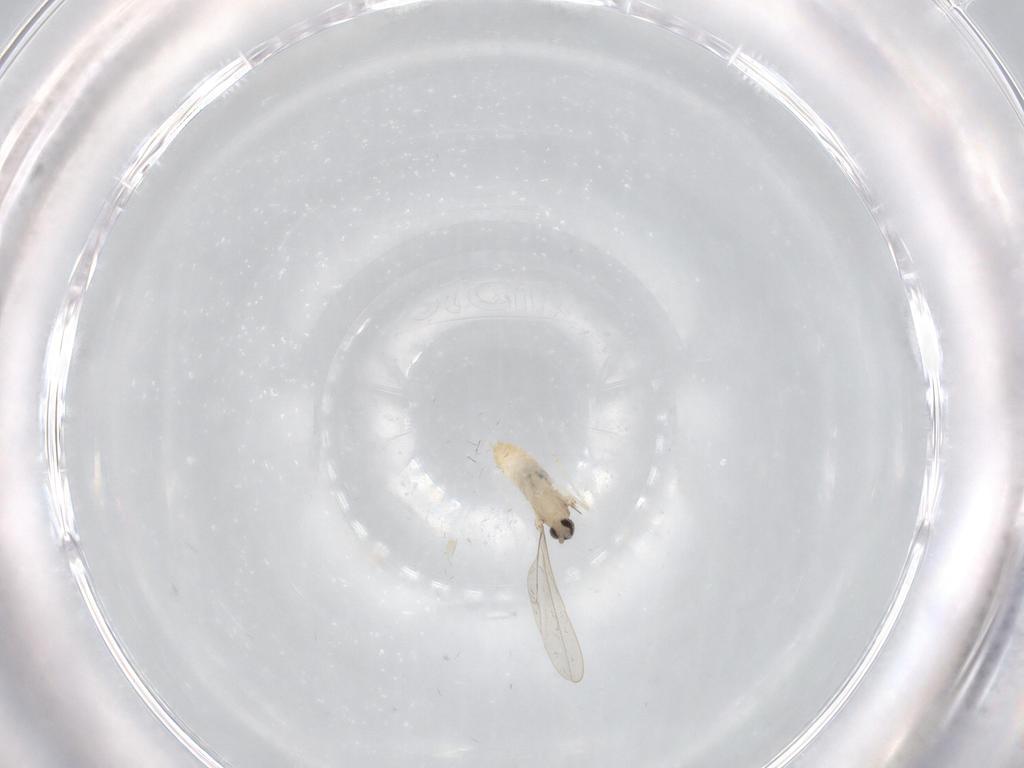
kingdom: Animalia
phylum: Arthropoda
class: Insecta
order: Diptera
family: Cecidomyiidae
